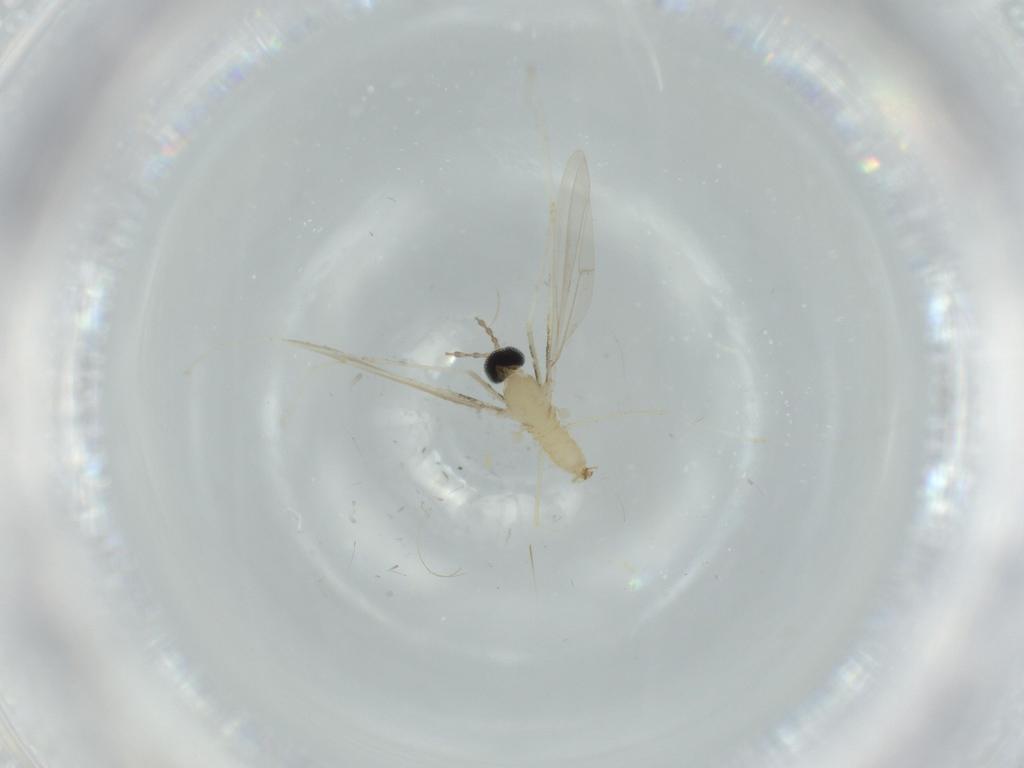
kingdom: Animalia
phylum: Arthropoda
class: Insecta
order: Diptera
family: Cecidomyiidae
